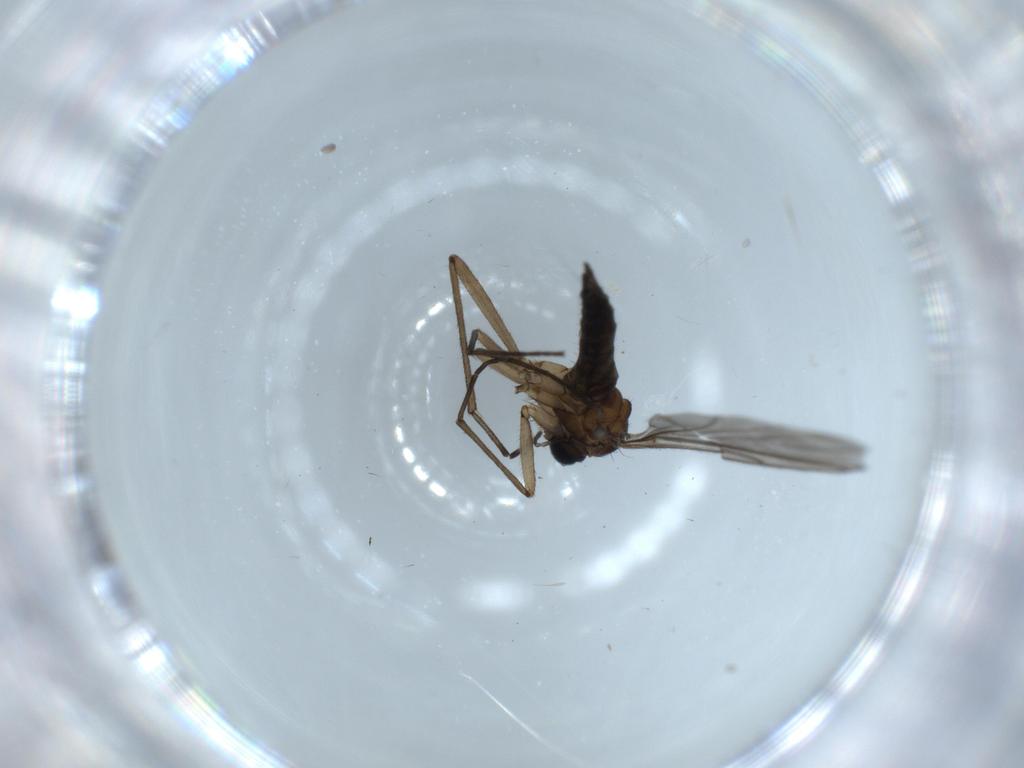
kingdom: Animalia
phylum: Arthropoda
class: Insecta
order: Diptera
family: Sciaridae
